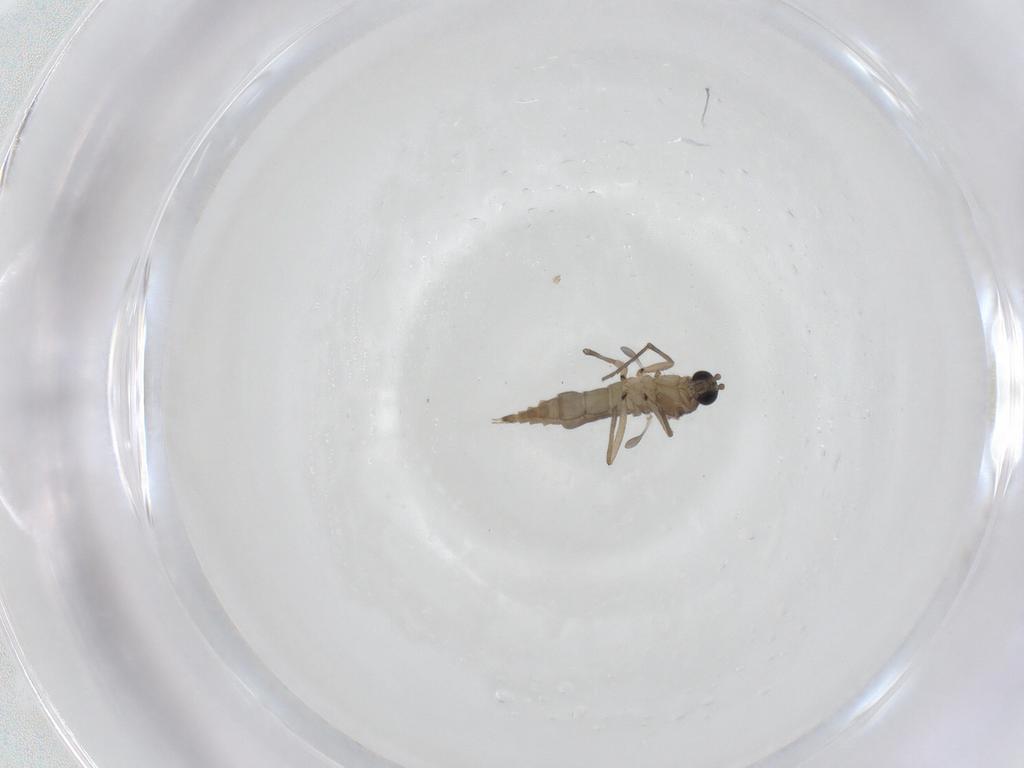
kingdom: Animalia
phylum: Arthropoda
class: Insecta
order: Diptera
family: Sciaridae
